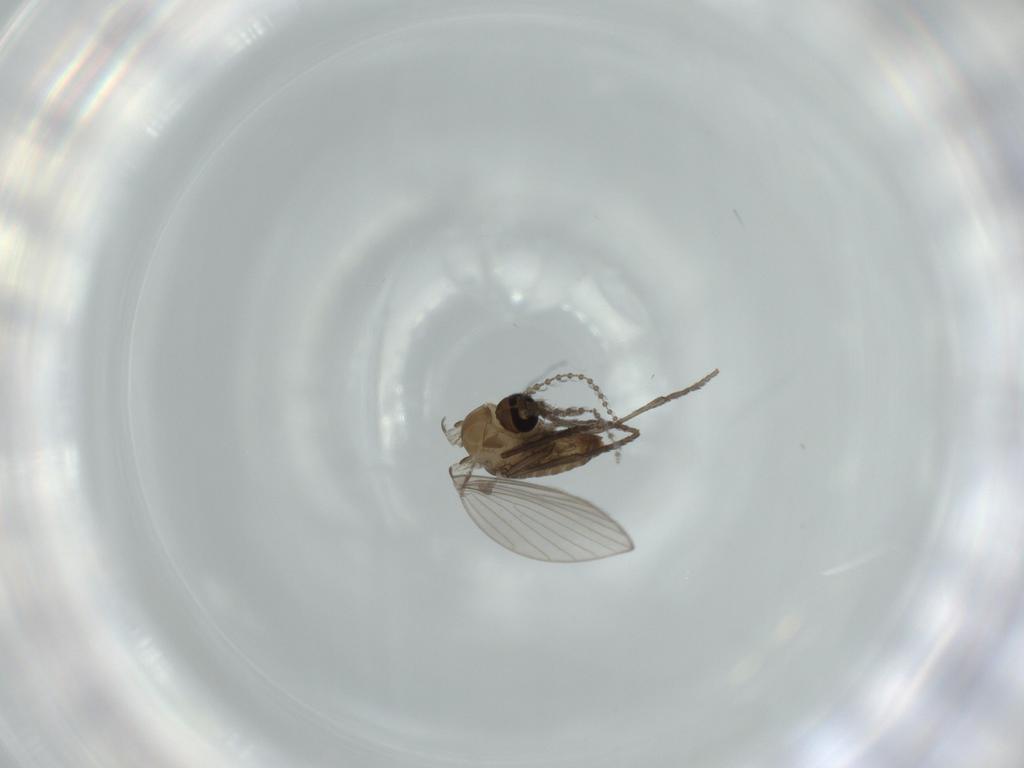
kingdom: Animalia
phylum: Arthropoda
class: Insecta
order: Diptera
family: Psychodidae
